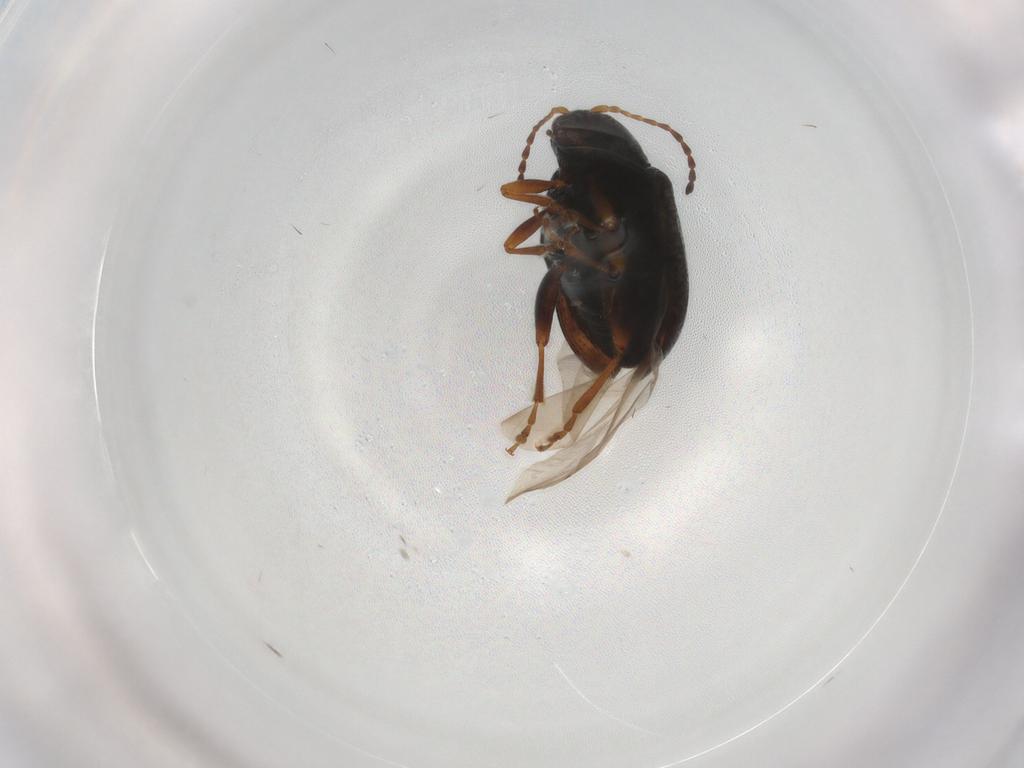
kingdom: Animalia
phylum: Arthropoda
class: Insecta
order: Coleoptera
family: Chrysomelidae
